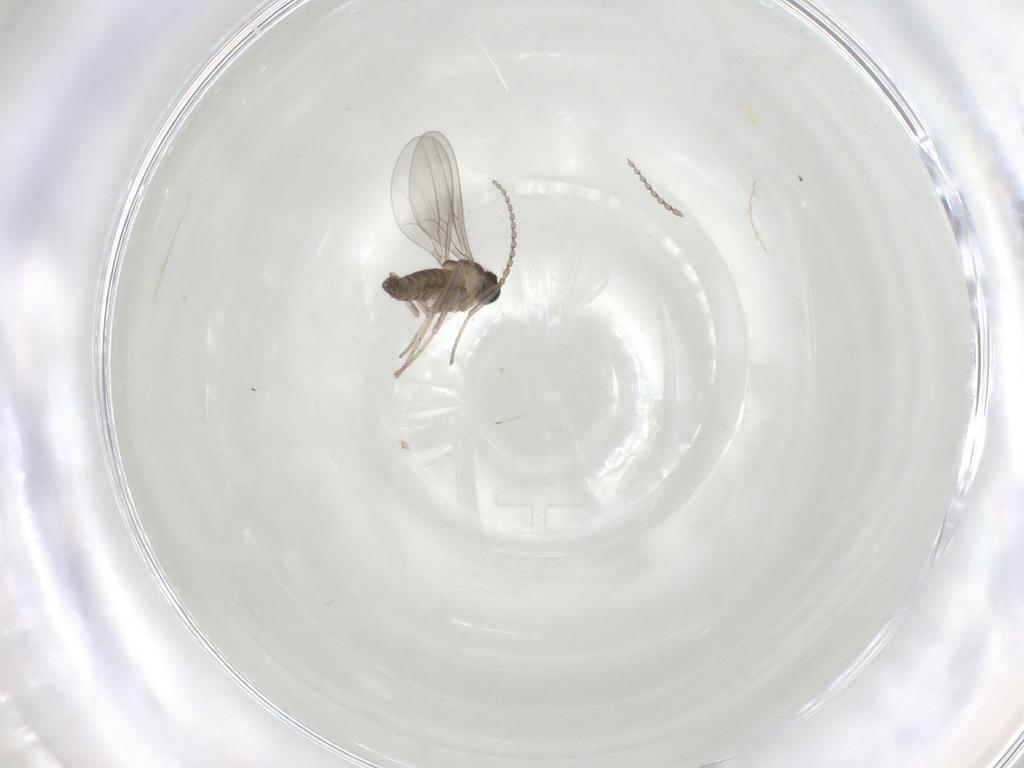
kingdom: Animalia
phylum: Arthropoda
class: Insecta
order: Diptera
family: Cecidomyiidae
